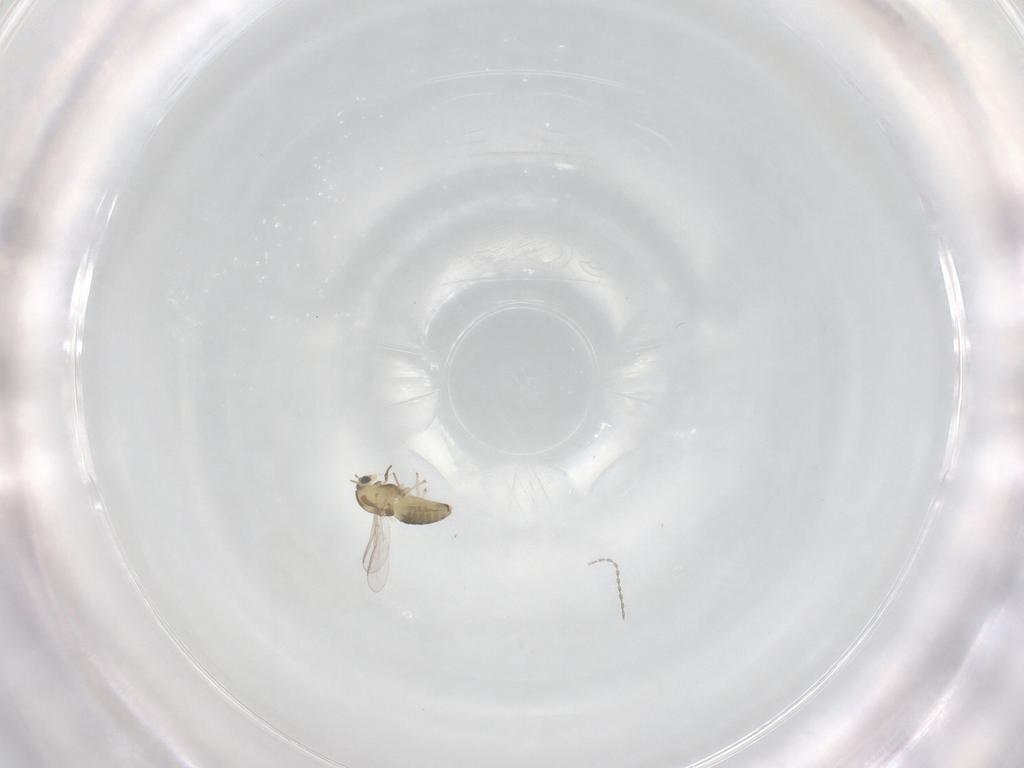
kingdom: Animalia
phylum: Arthropoda
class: Insecta
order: Diptera
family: Chironomidae
